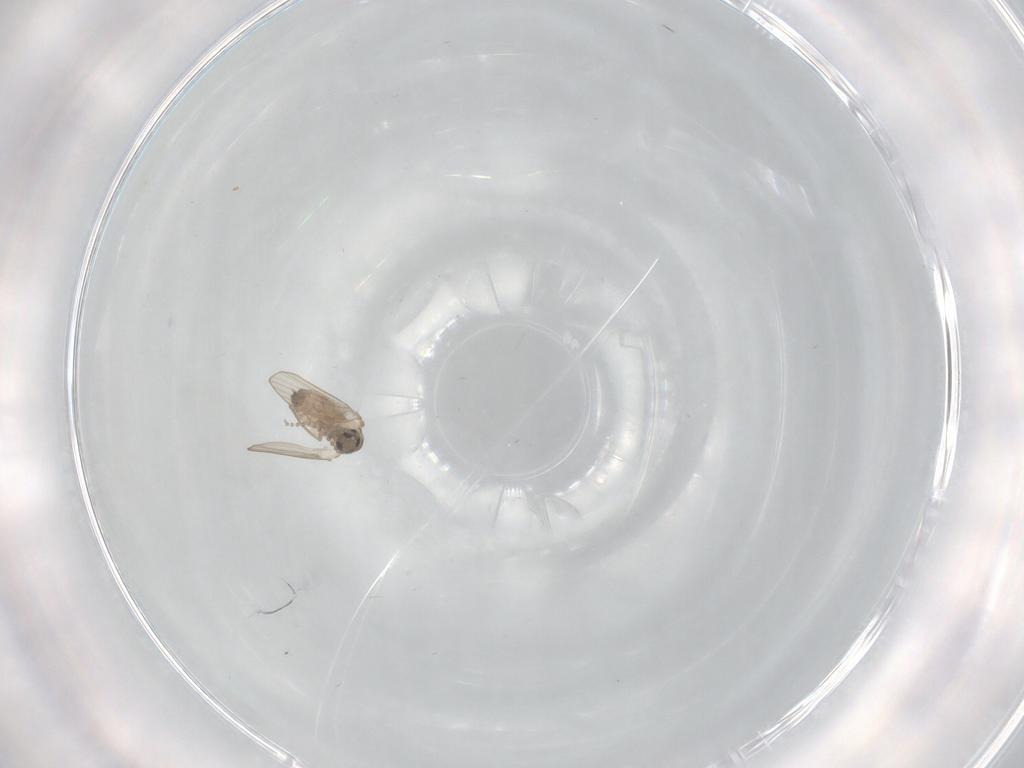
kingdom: Animalia
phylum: Arthropoda
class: Insecta
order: Diptera
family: Psychodidae
